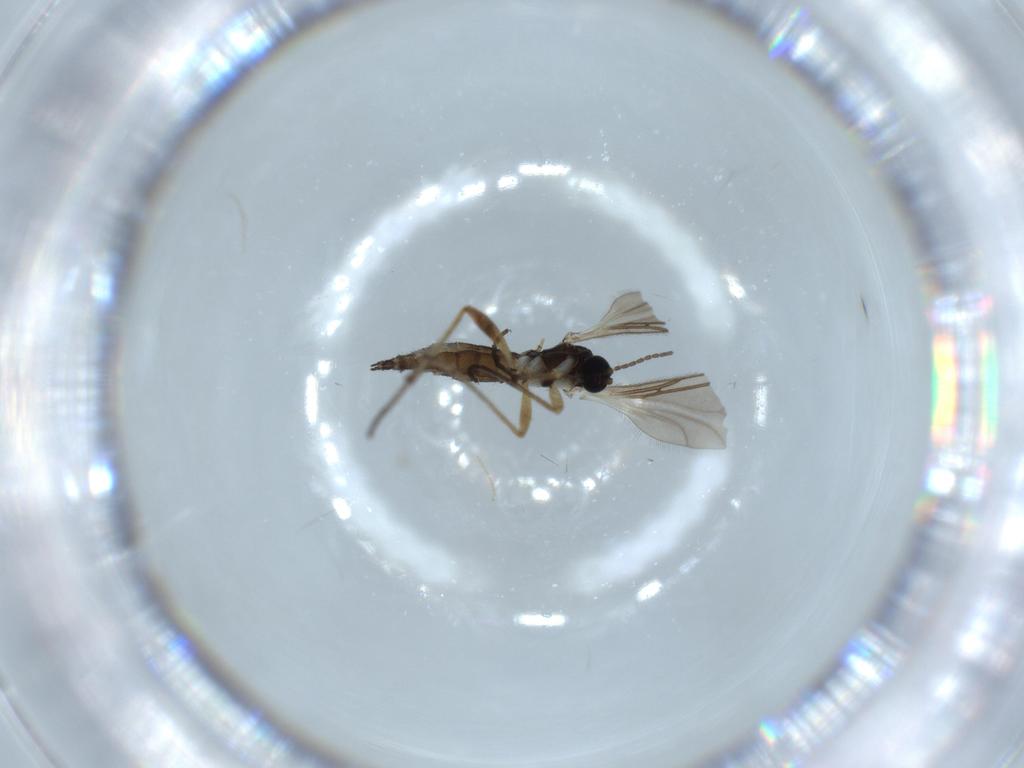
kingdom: Animalia
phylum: Arthropoda
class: Insecta
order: Diptera
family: Sciaridae
